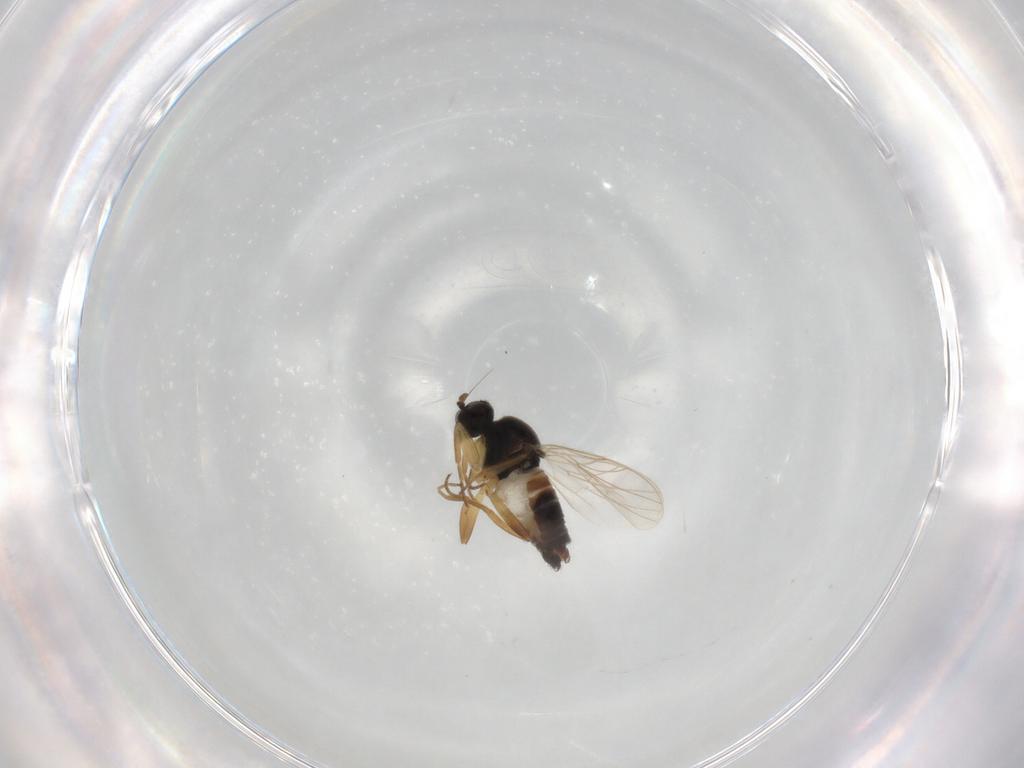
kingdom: Animalia
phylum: Arthropoda
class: Insecta
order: Diptera
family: Hybotidae
